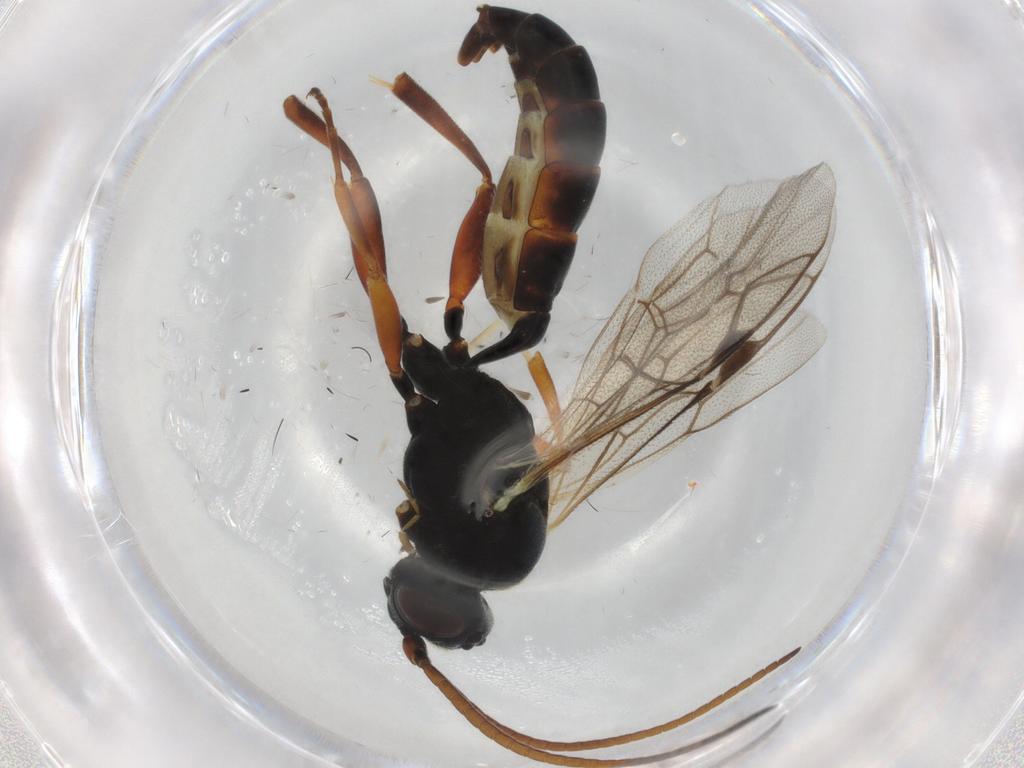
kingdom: Animalia
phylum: Arthropoda
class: Insecta
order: Hymenoptera
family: Ichneumonidae
